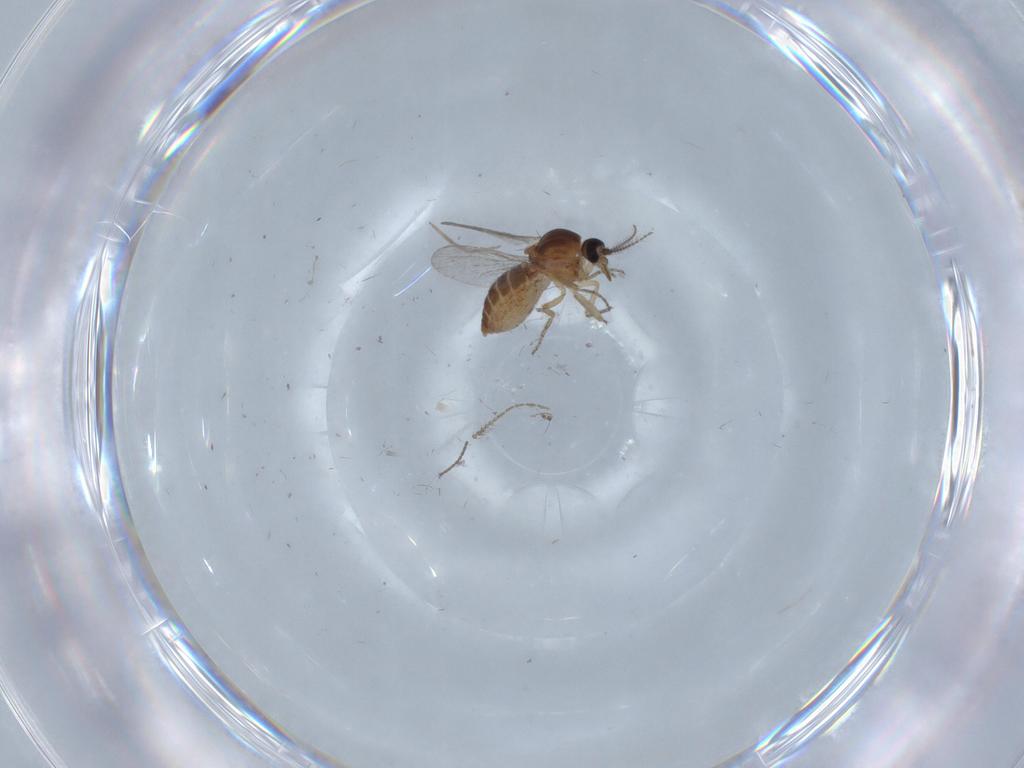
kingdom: Animalia
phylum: Arthropoda
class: Insecta
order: Diptera
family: Ceratopogonidae
